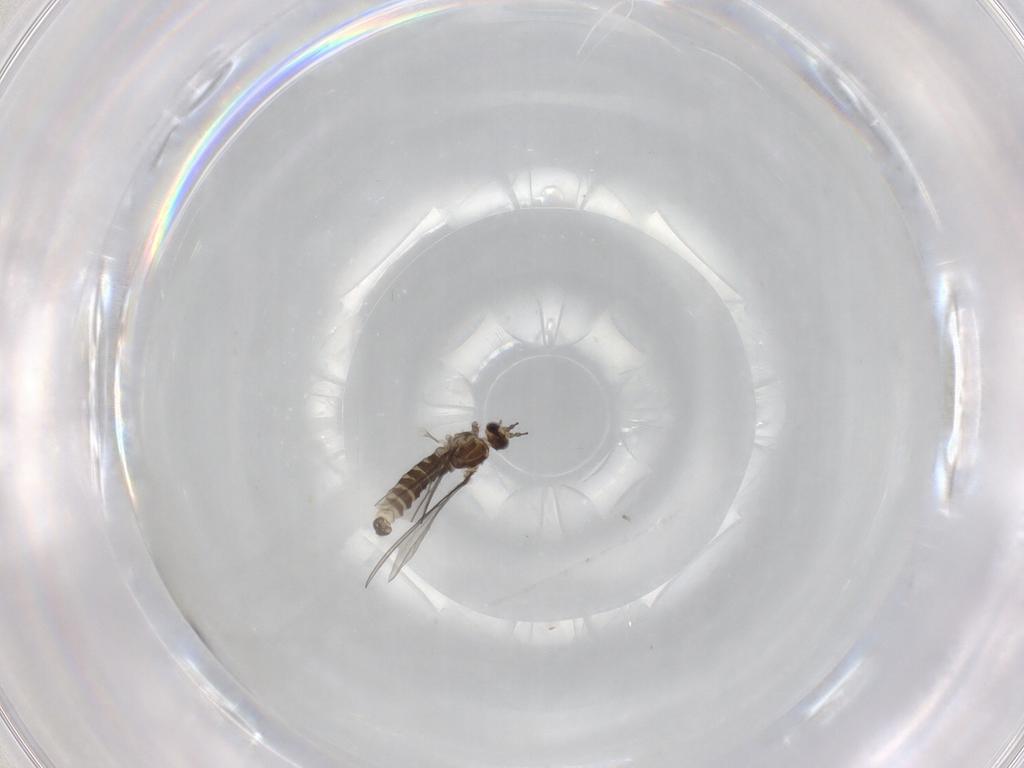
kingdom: Animalia
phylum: Arthropoda
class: Insecta
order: Diptera
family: Cecidomyiidae
